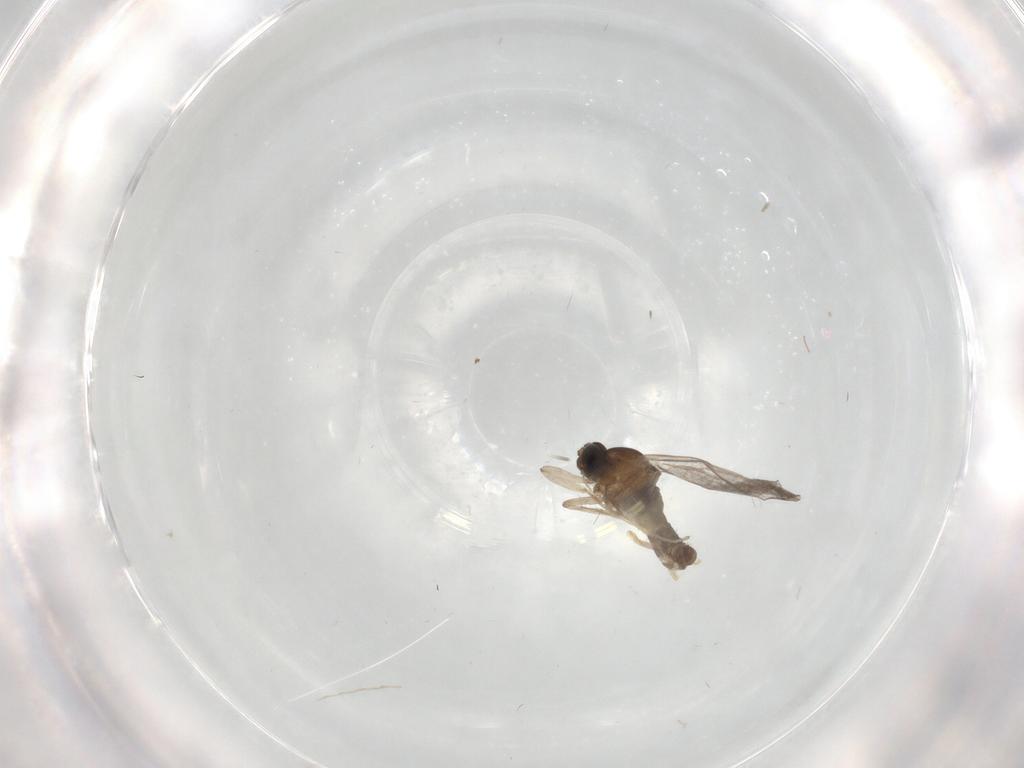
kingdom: Animalia
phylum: Arthropoda
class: Insecta
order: Diptera
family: Cecidomyiidae
